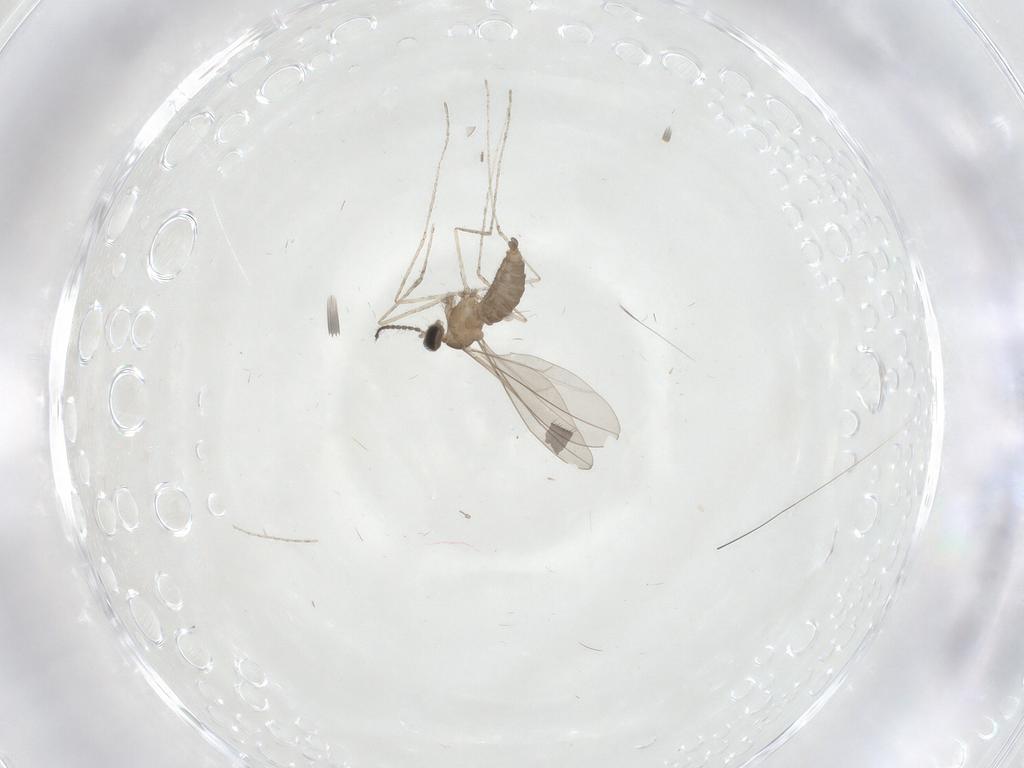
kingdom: Animalia
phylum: Arthropoda
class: Insecta
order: Diptera
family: Cecidomyiidae
